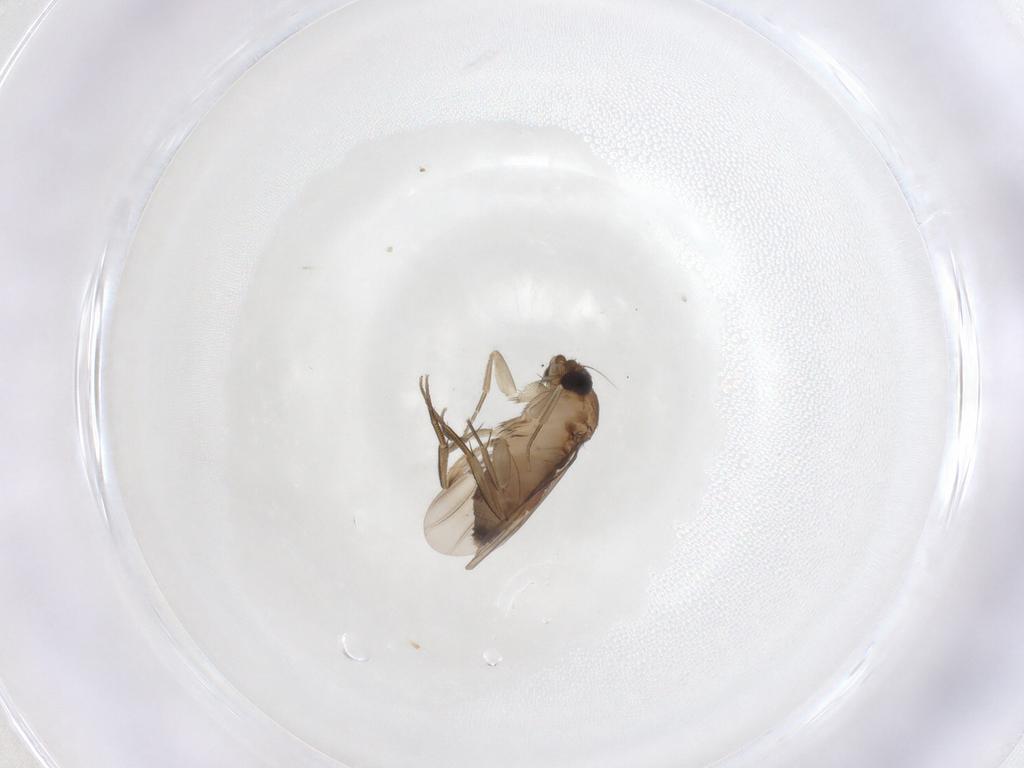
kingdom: Animalia
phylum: Arthropoda
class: Insecta
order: Diptera
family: Phoridae
